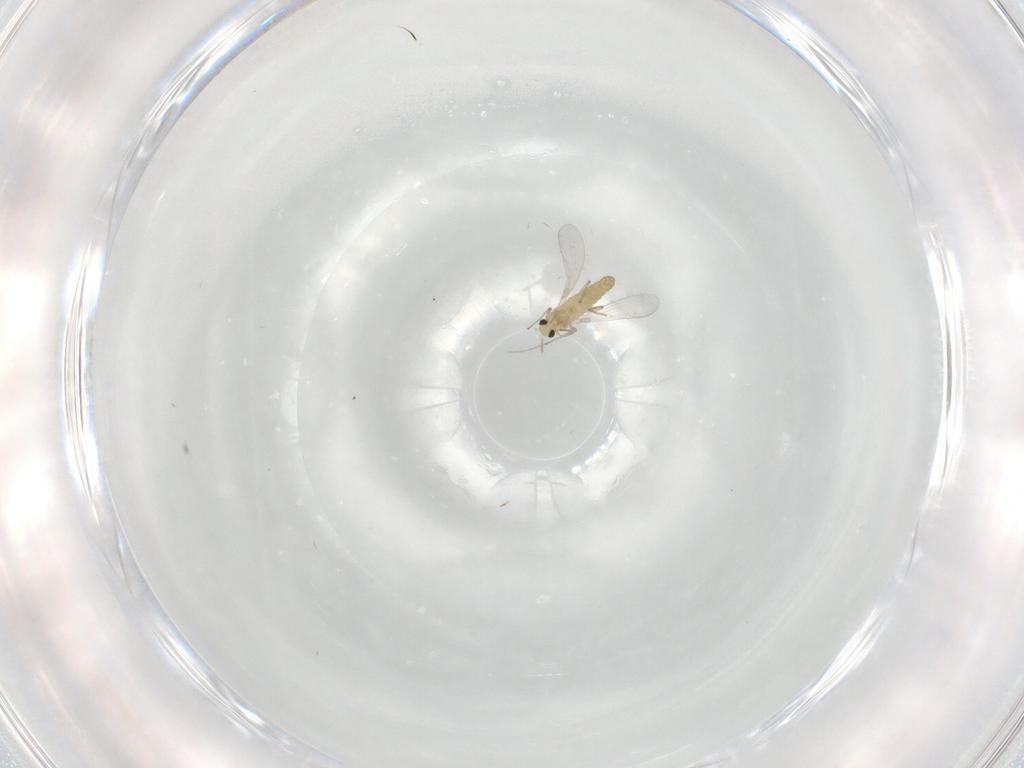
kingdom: Animalia
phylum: Arthropoda
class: Insecta
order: Diptera
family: Chironomidae
